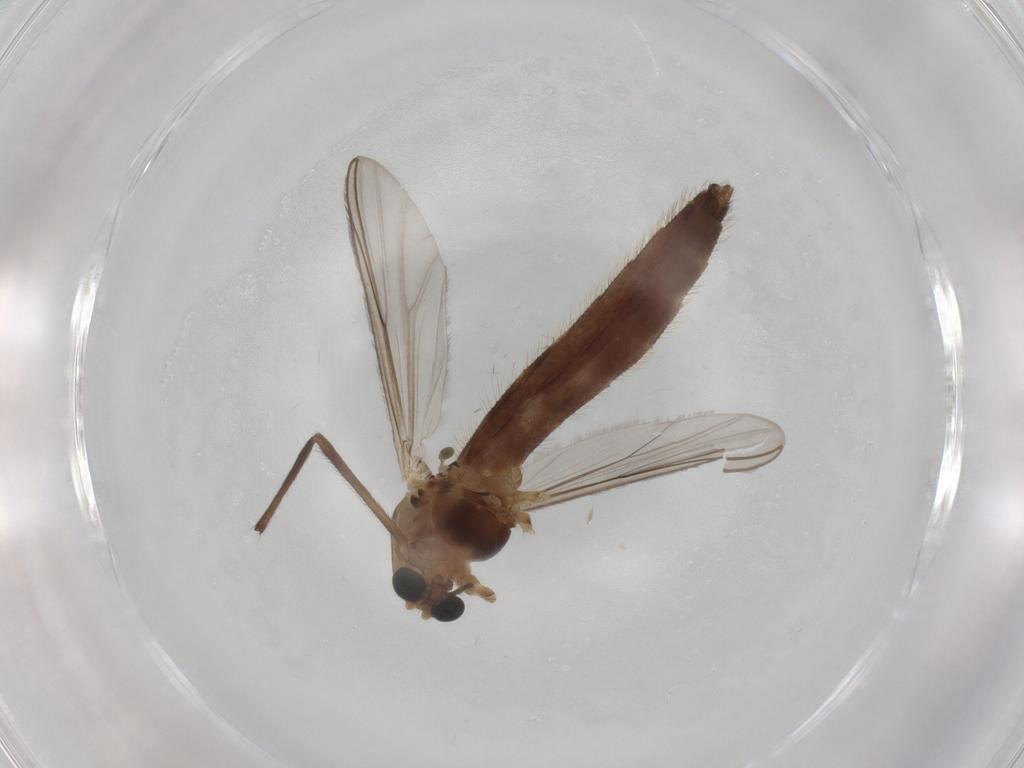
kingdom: Animalia
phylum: Arthropoda
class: Insecta
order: Diptera
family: Chironomidae
